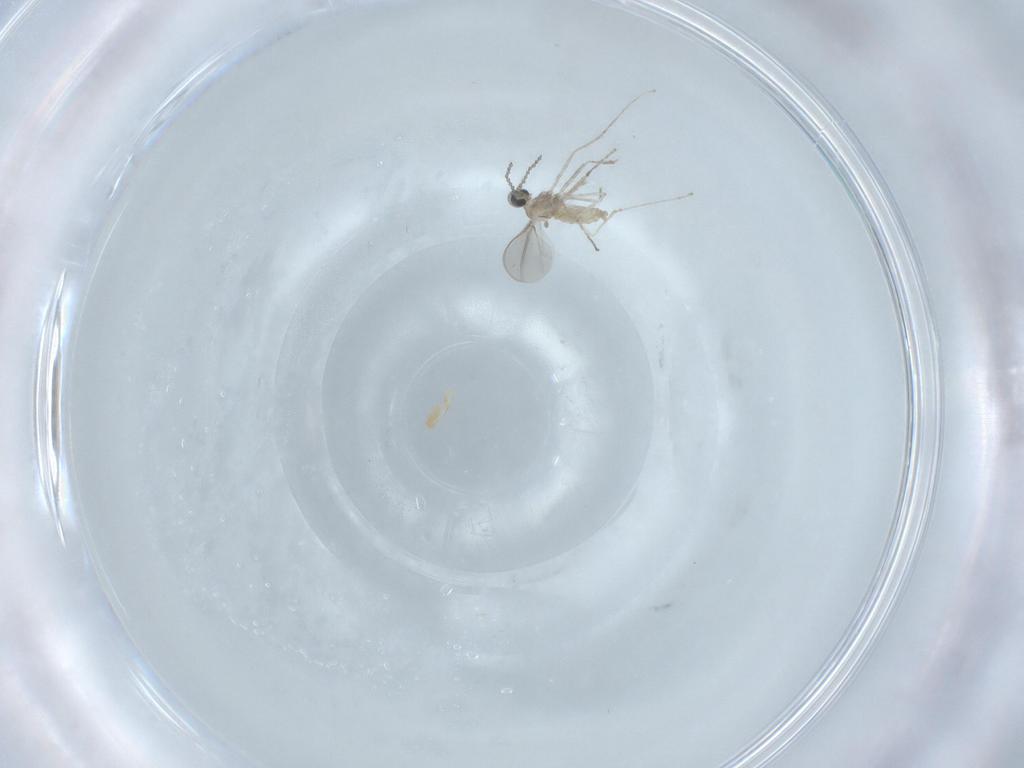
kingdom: Animalia
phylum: Arthropoda
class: Insecta
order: Diptera
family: Cecidomyiidae
